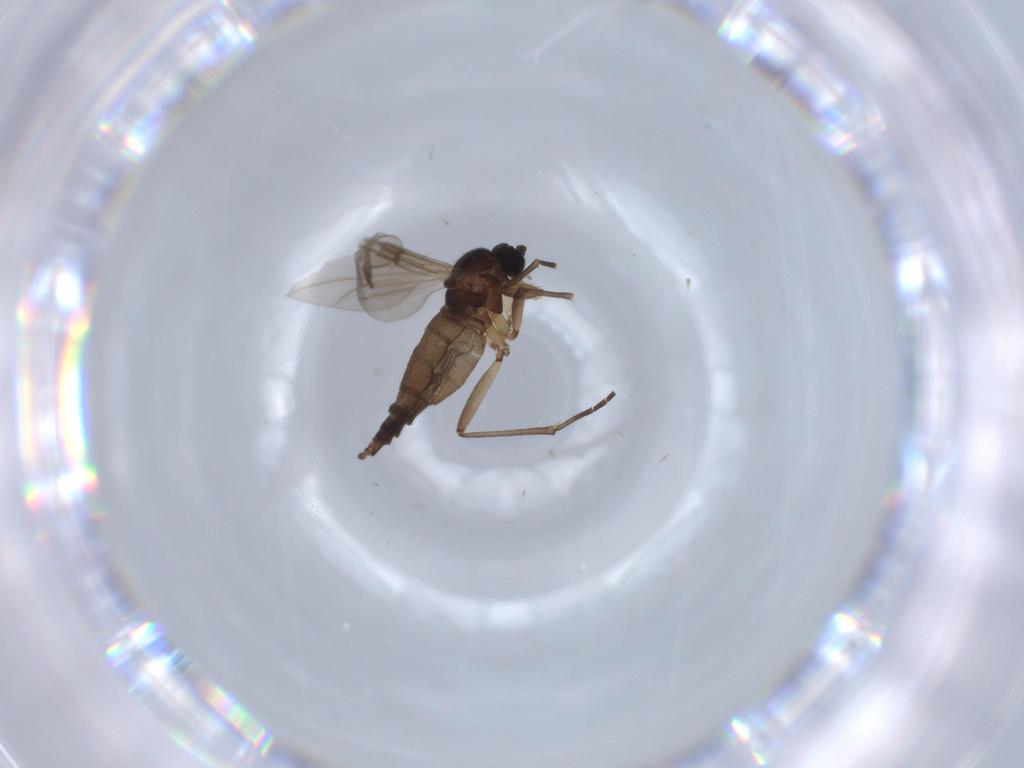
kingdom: Animalia
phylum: Arthropoda
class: Insecta
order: Diptera
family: Sciaridae
